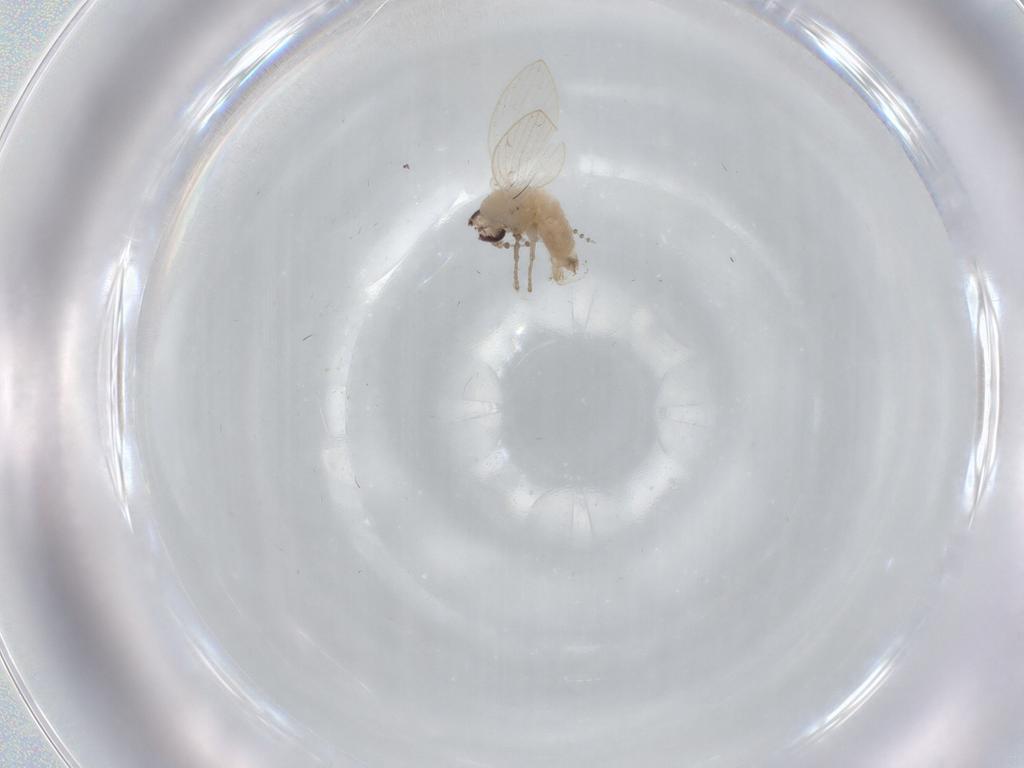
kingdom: Animalia
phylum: Arthropoda
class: Insecta
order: Diptera
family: Psychodidae
